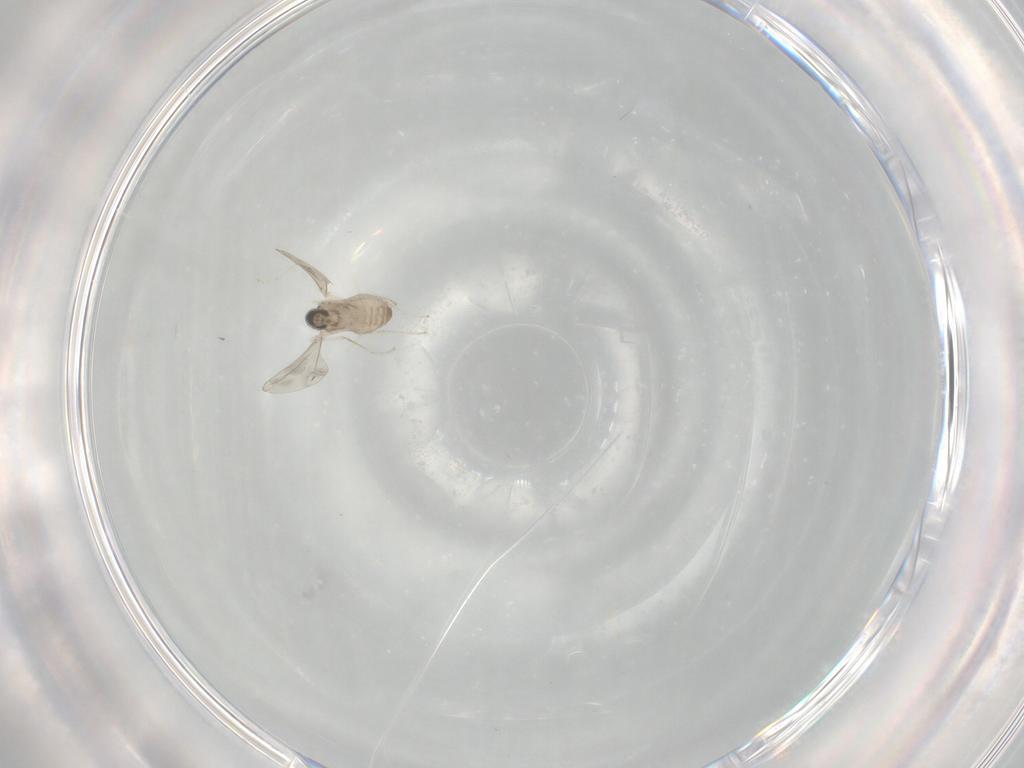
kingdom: Animalia
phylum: Arthropoda
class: Insecta
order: Diptera
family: Cecidomyiidae
